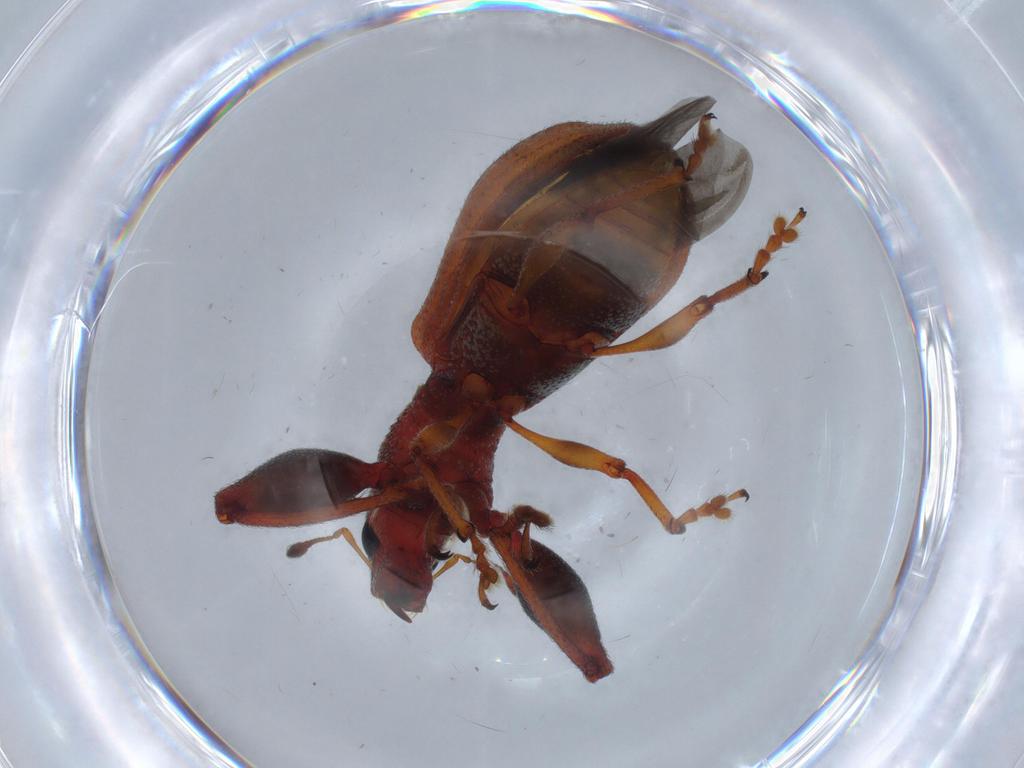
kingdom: Animalia
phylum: Arthropoda
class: Insecta
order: Coleoptera
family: Curculionidae
